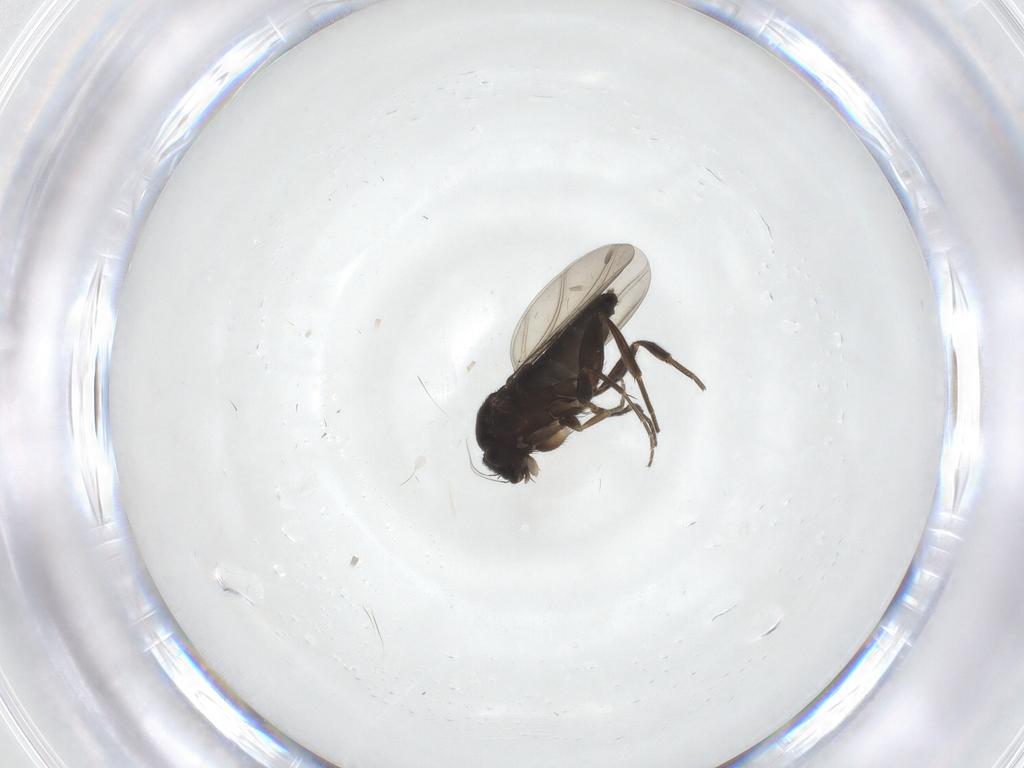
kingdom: Animalia
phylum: Arthropoda
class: Insecta
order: Diptera
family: Phoridae
